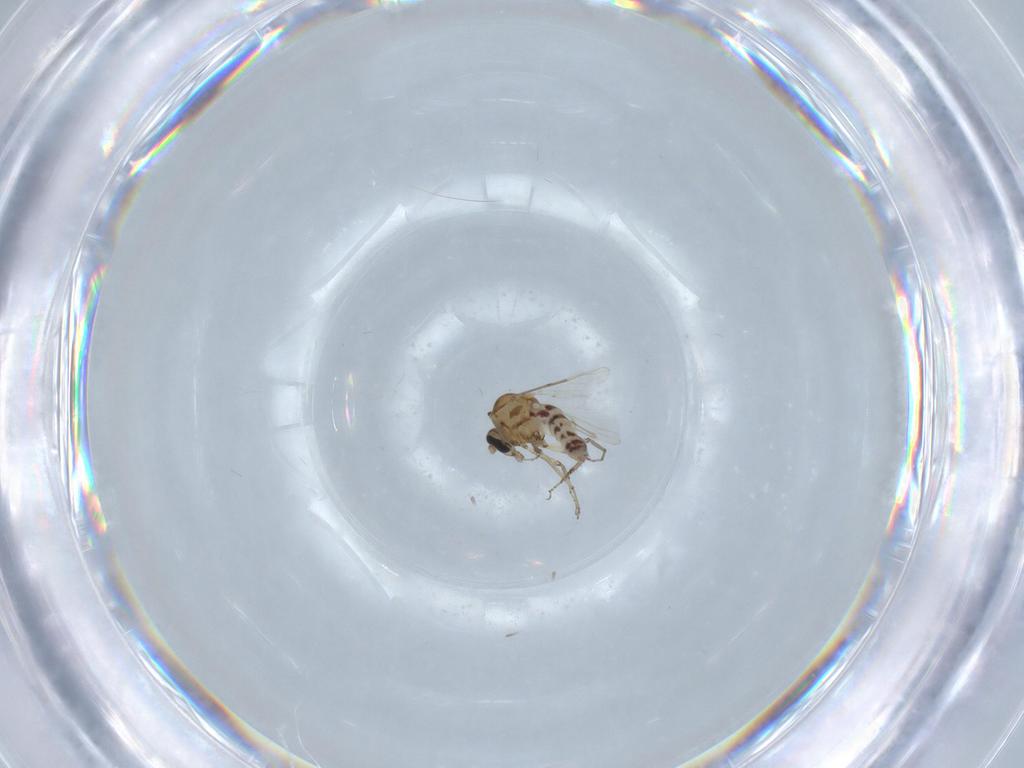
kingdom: Animalia
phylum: Arthropoda
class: Insecta
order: Diptera
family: Ceratopogonidae
